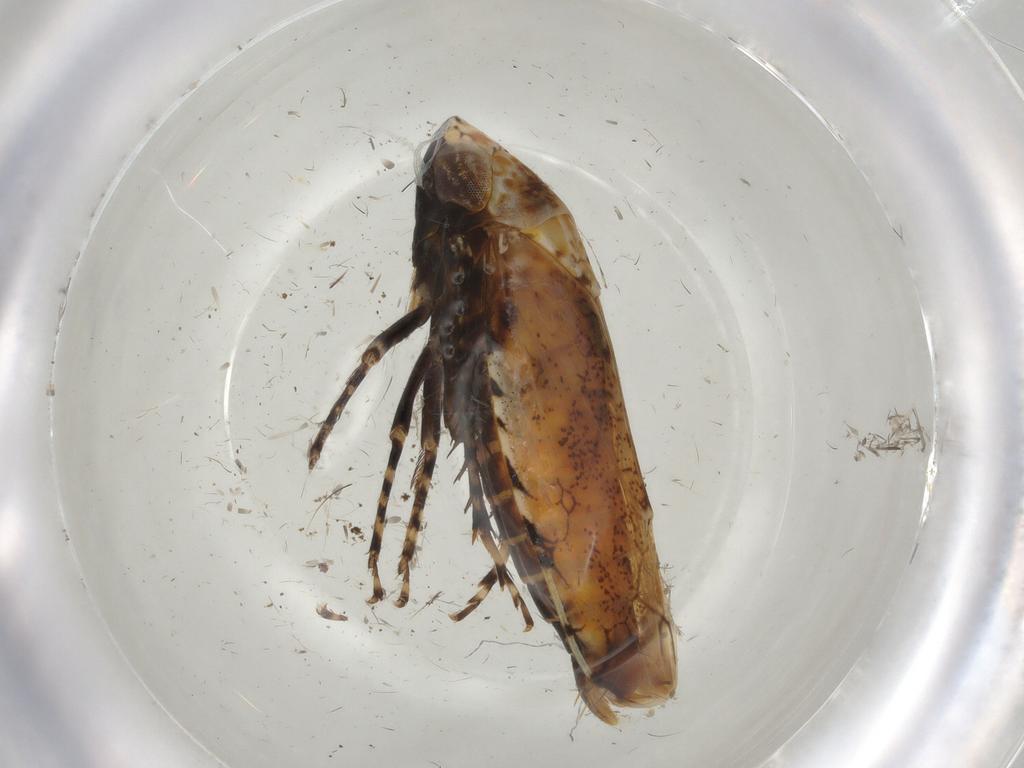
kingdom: Animalia
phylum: Arthropoda
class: Insecta
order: Hemiptera
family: Cicadellidae
